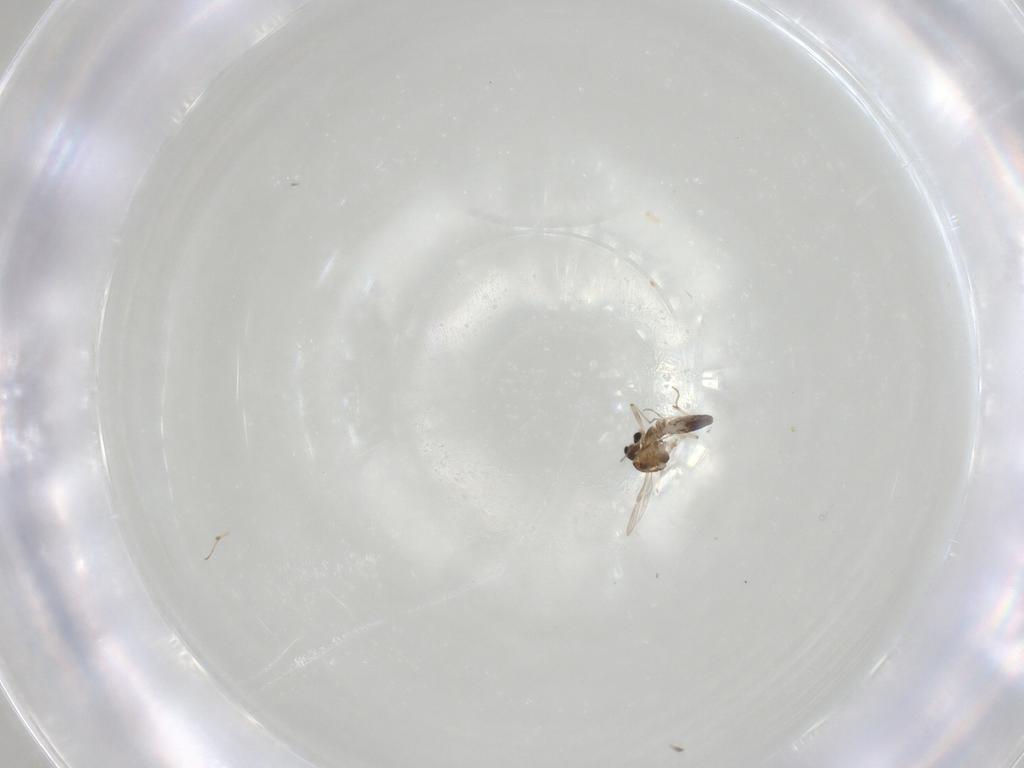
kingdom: Animalia
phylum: Arthropoda
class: Insecta
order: Diptera
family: Chironomidae
